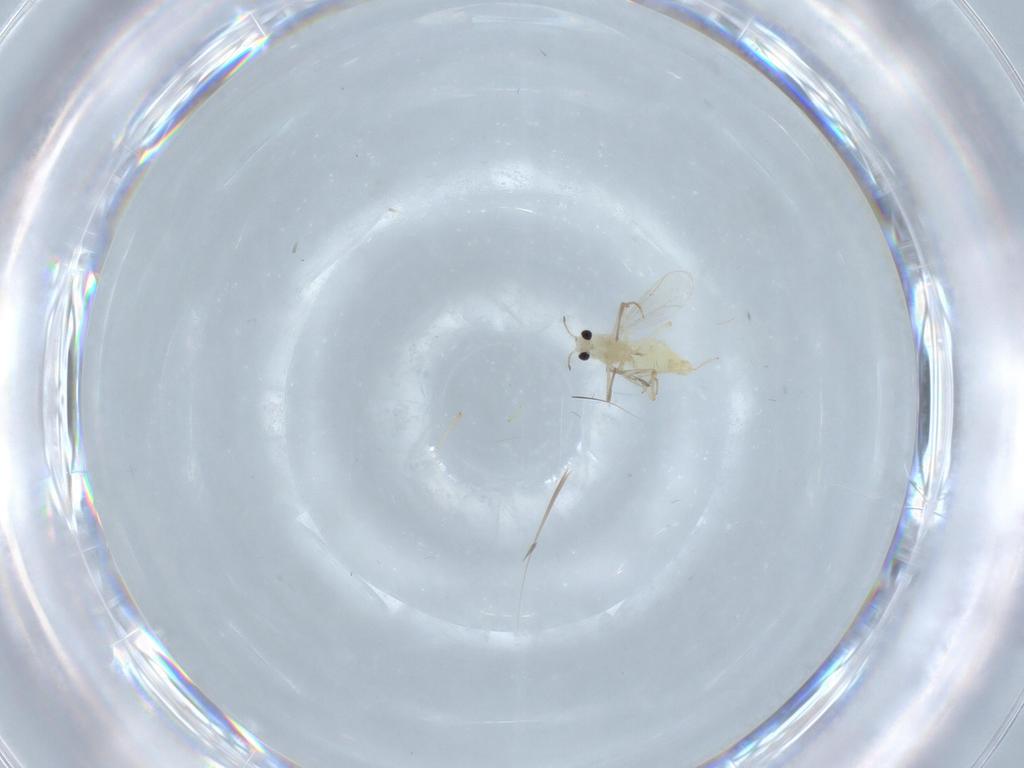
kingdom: Animalia
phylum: Arthropoda
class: Insecta
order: Diptera
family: Chironomidae
